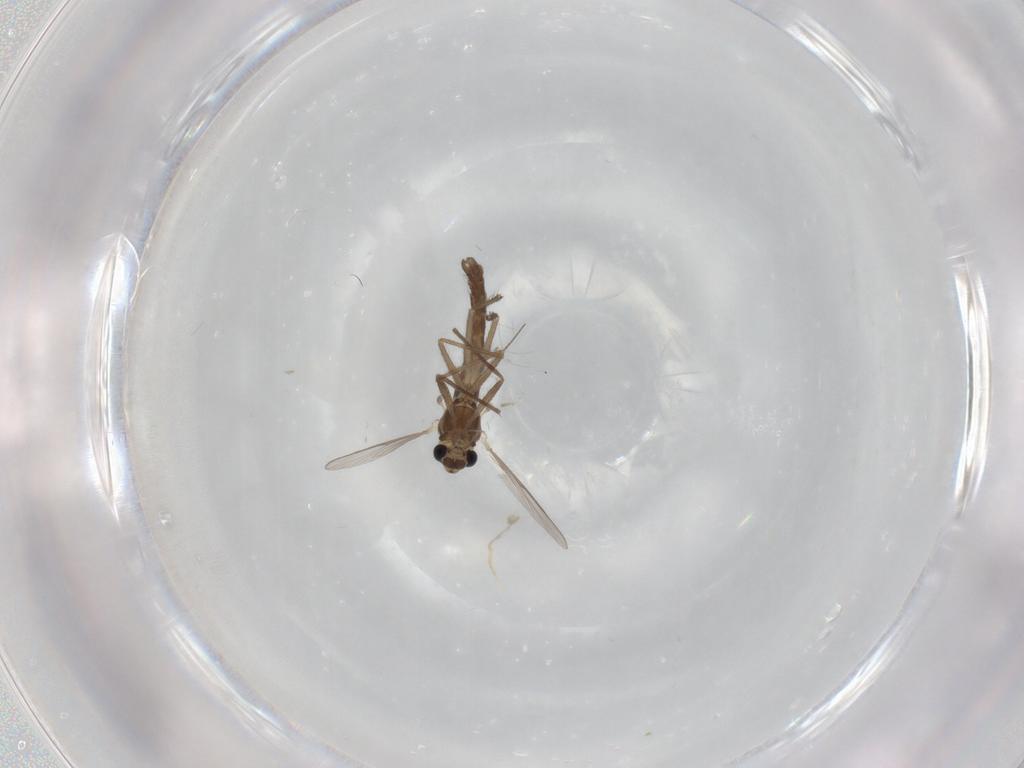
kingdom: Animalia
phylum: Arthropoda
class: Insecta
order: Diptera
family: Chironomidae
